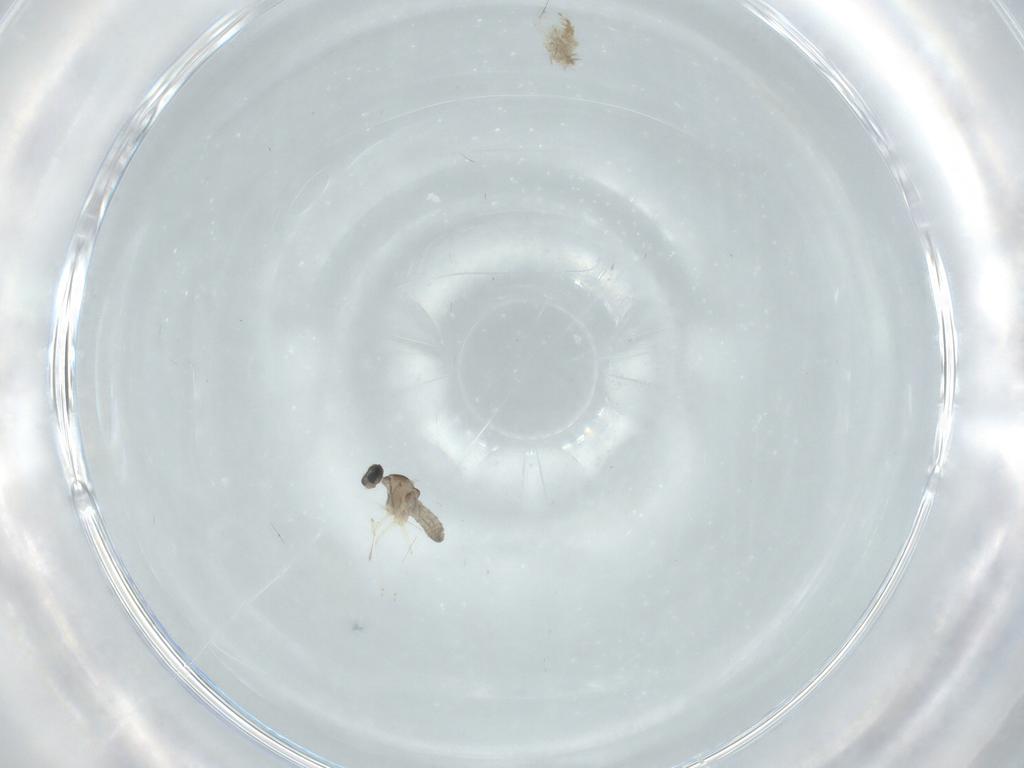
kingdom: Animalia
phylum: Arthropoda
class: Insecta
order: Diptera
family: Cecidomyiidae
